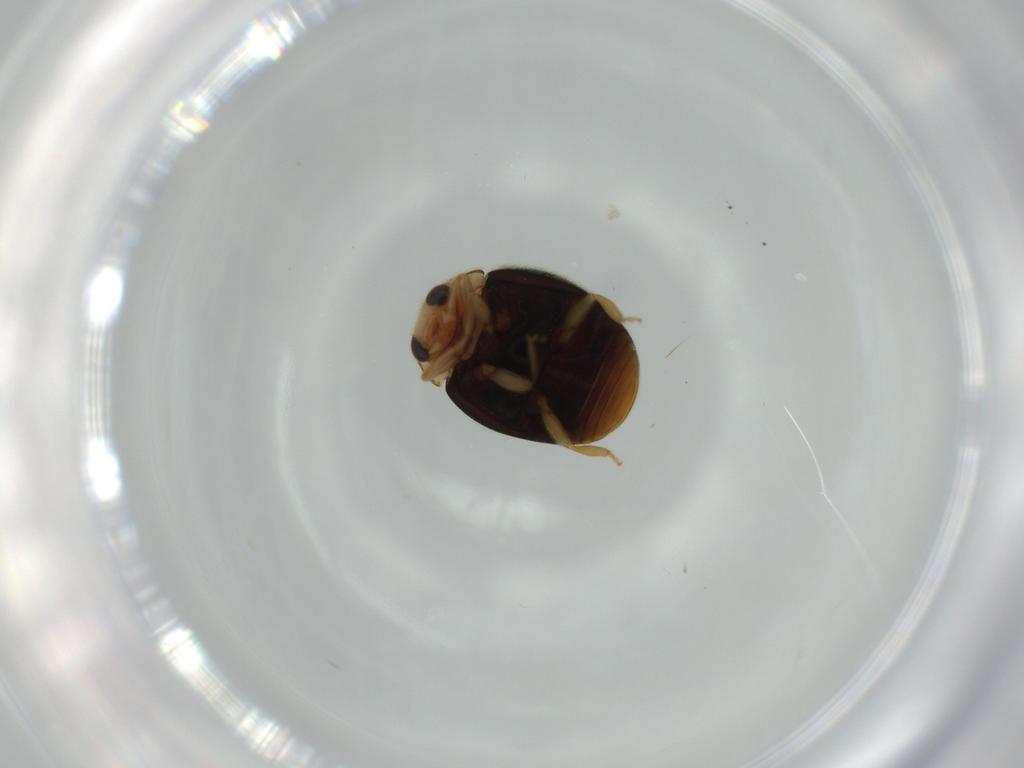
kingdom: Animalia
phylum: Arthropoda
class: Insecta
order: Coleoptera
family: Coccinellidae
